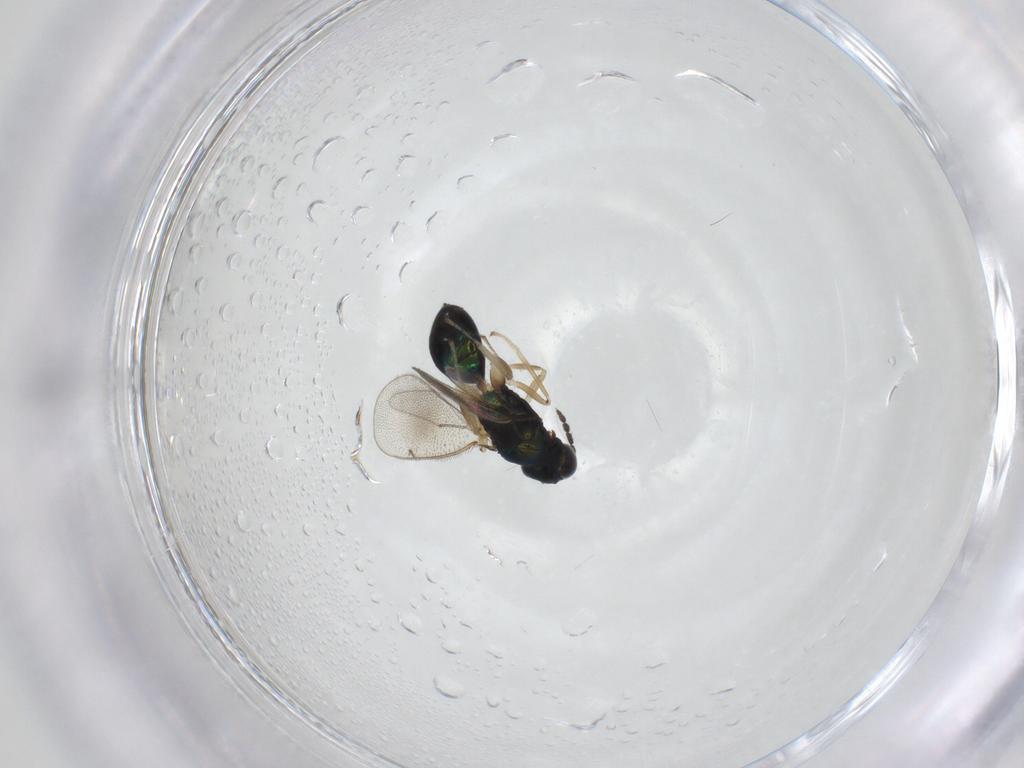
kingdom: Animalia
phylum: Arthropoda
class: Insecta
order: Hymenoptera
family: Eulophidae
